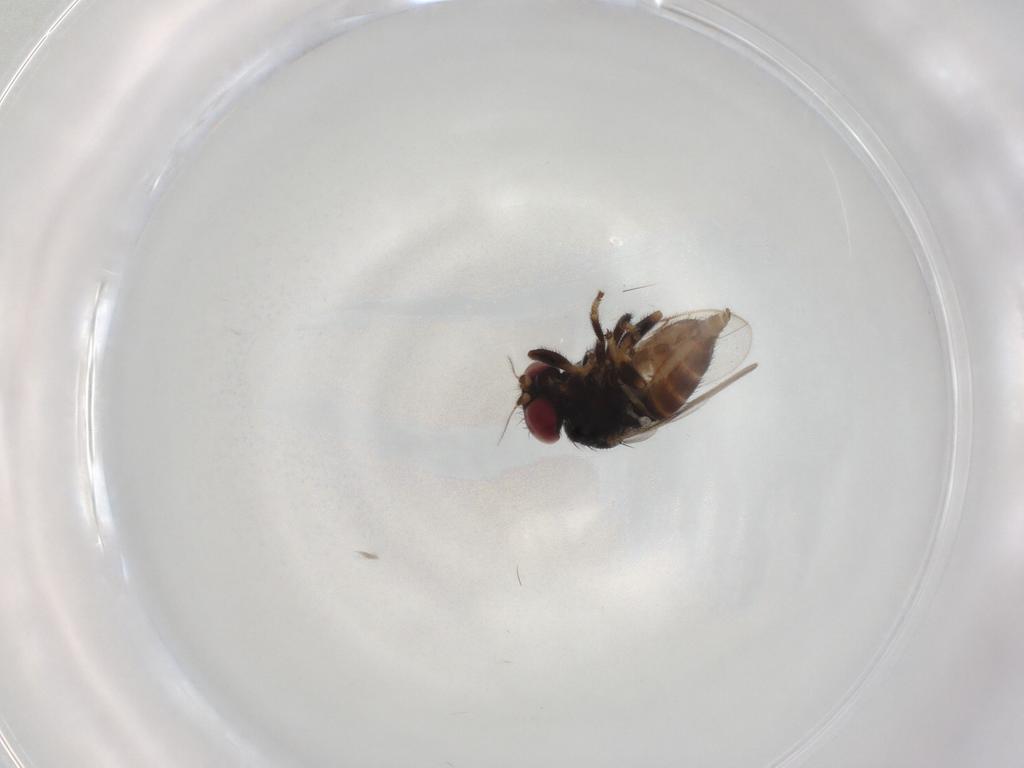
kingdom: Animalia
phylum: Arthropoda
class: Insecta
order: Diptera
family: Chloropidae
